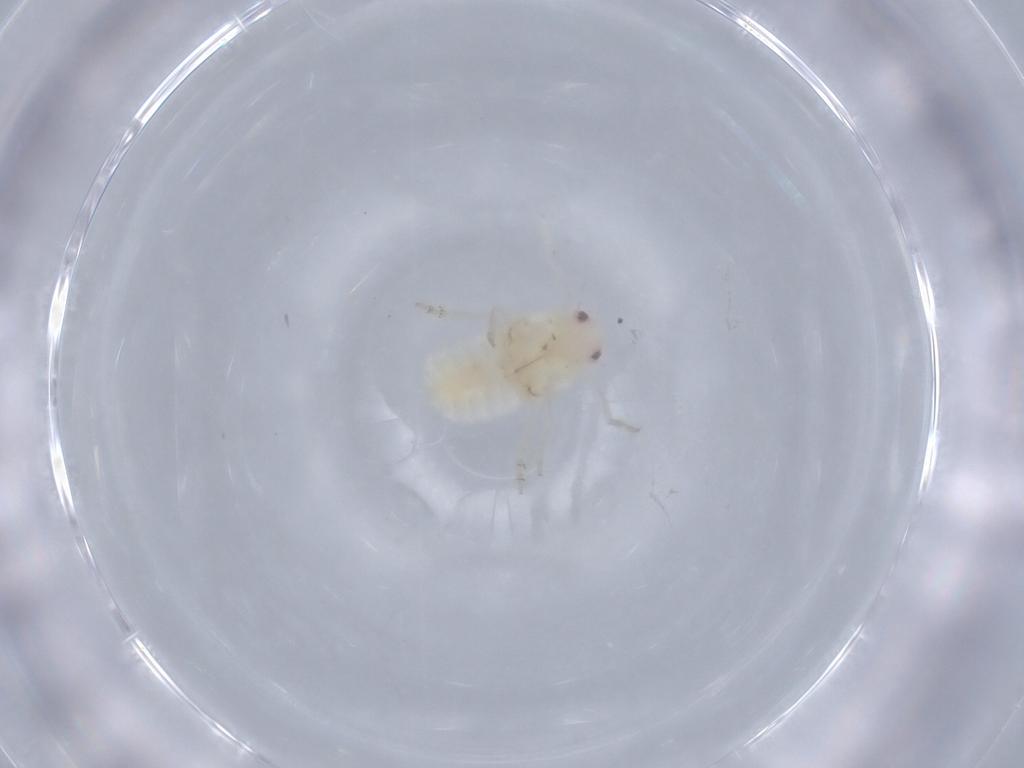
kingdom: Animalia
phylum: Arthropoda
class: Insecta
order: Hemiptera
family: Flatidae
